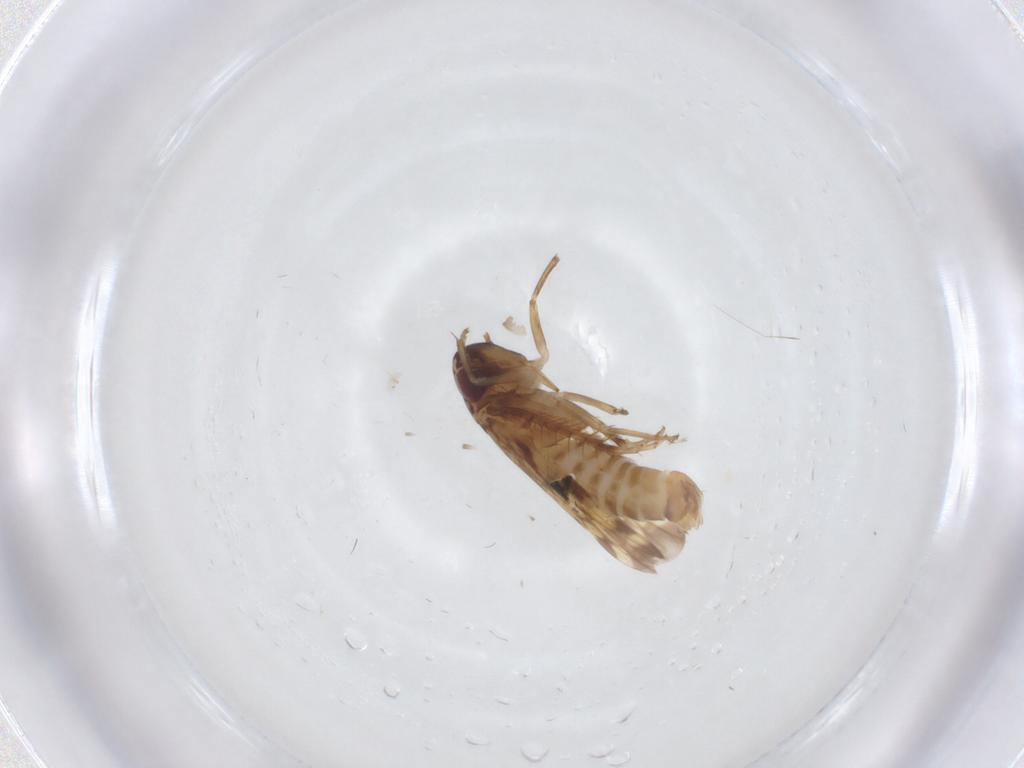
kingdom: Animalia
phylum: Arthropoda
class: Insecta
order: Hemiptera
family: Cicadellidae
